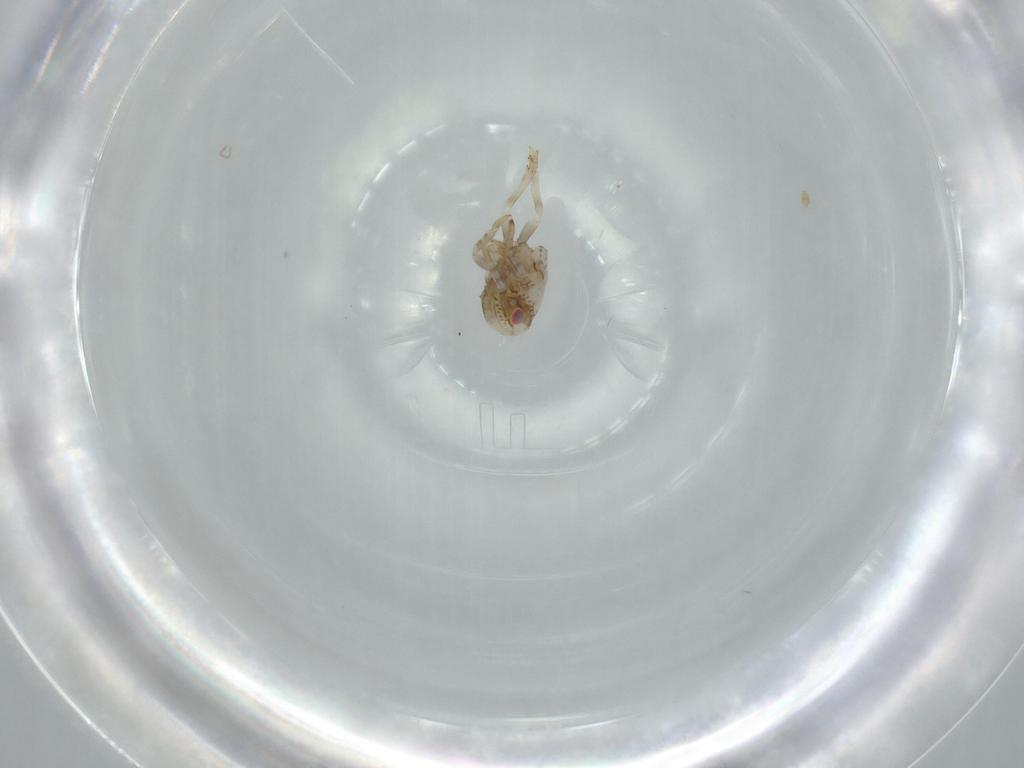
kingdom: Animalia
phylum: Arthropoda
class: Insecta
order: Hemiptera
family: Acanaloniidae
